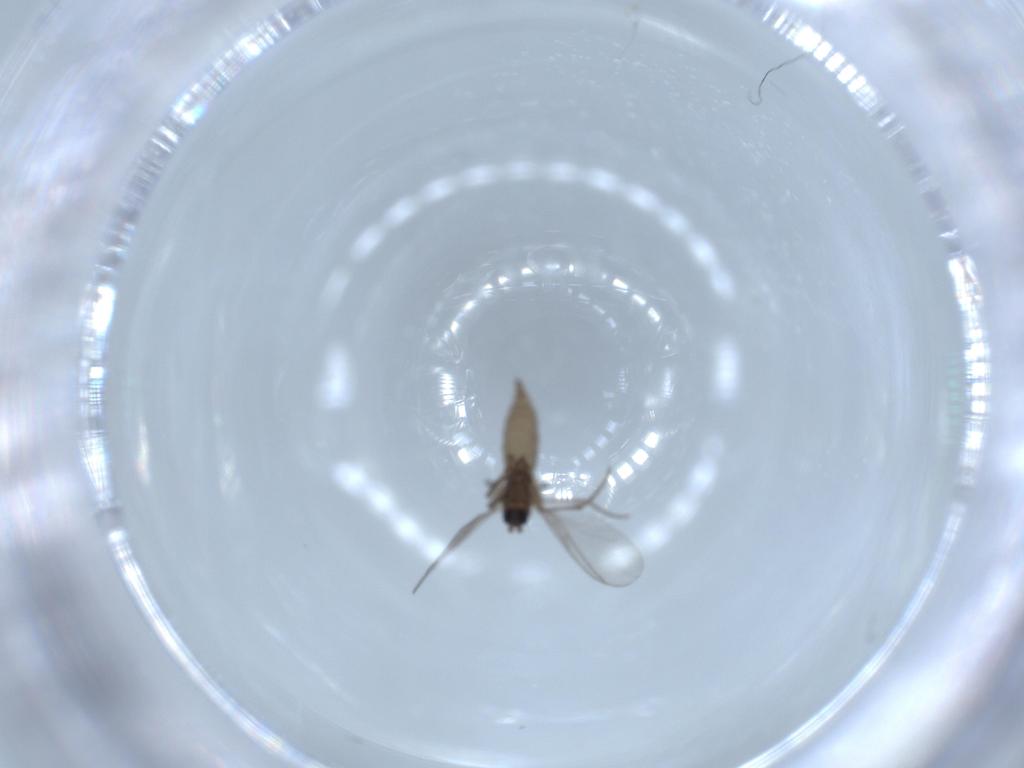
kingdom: Animalia
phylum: Arthropoda
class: Insecta
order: Diptera
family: Sciaridae
